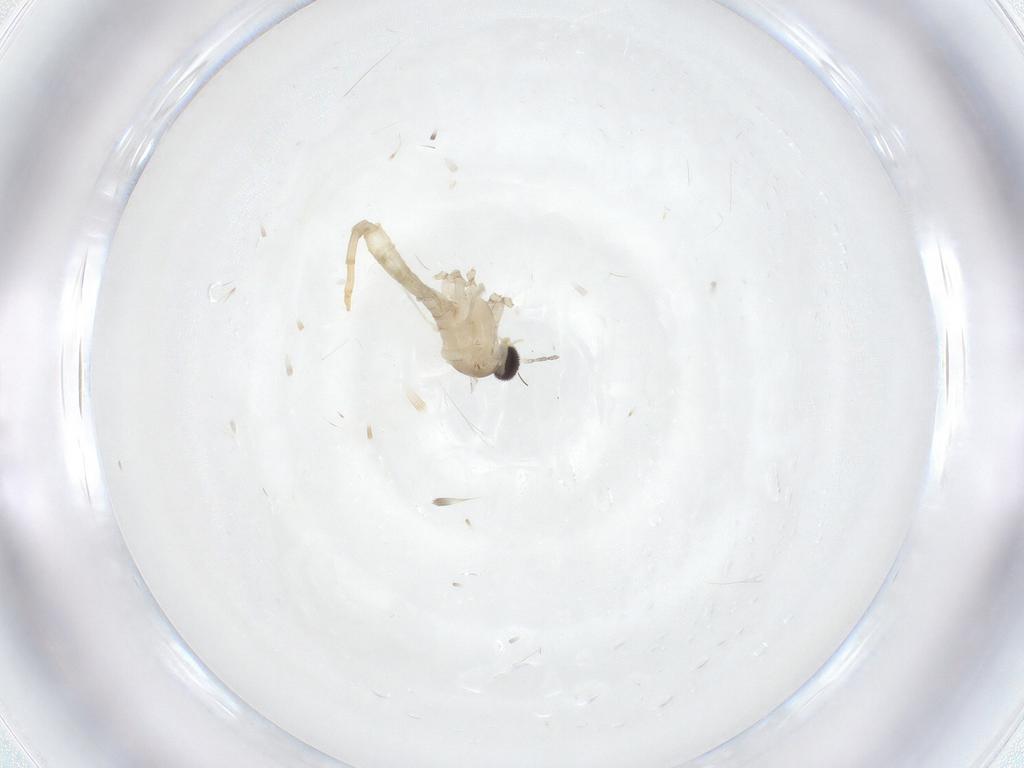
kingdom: Animalia
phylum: Arthropoda
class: Insecta
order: Diptera
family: Cecidomyiidae
